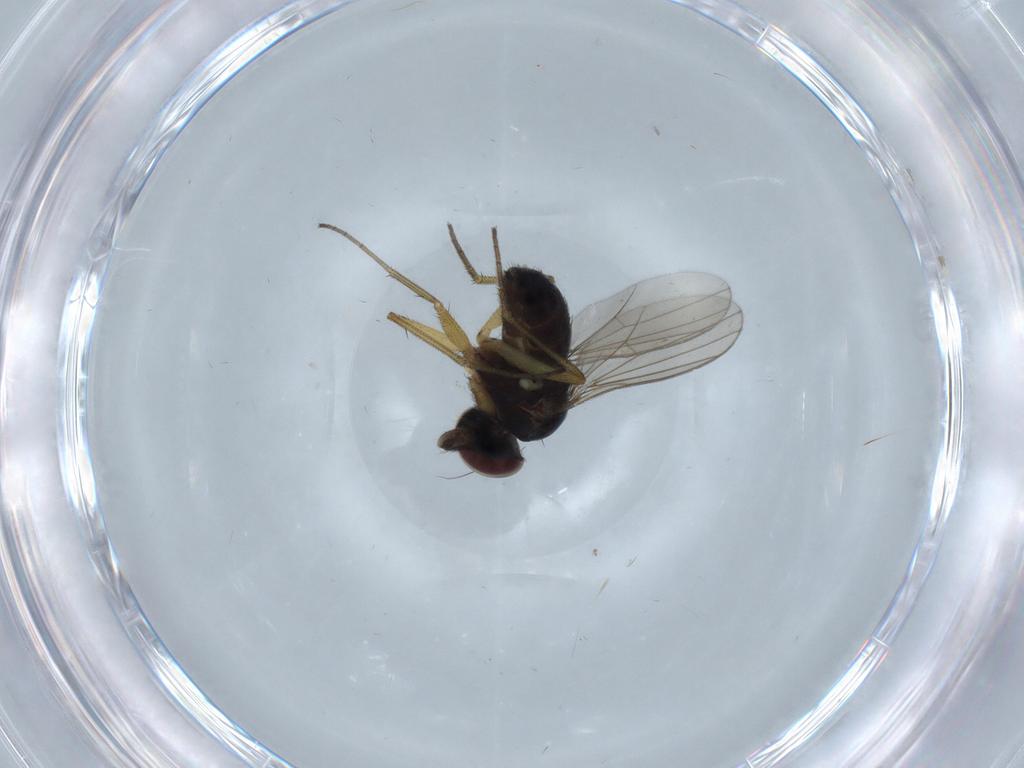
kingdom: Animalia
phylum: Arthropoda
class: Insecta
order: Diptera
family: Dolichopodidae
